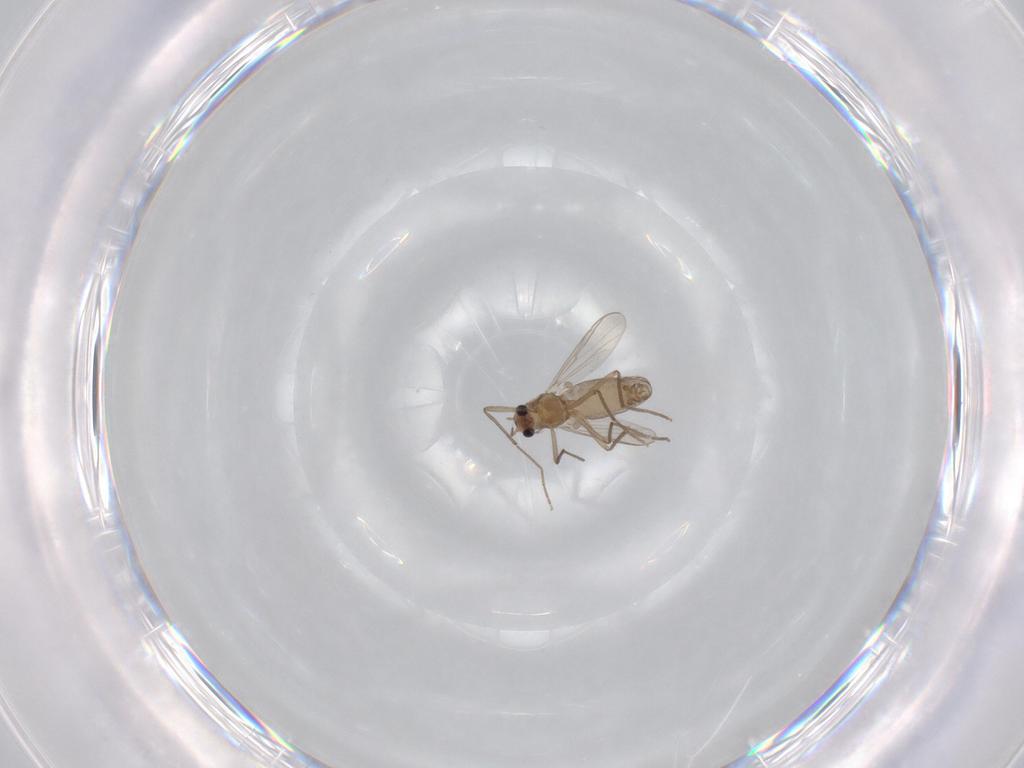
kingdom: Animalia
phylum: Arthropoda
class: Insecta
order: Diptera
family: Chironomidae
